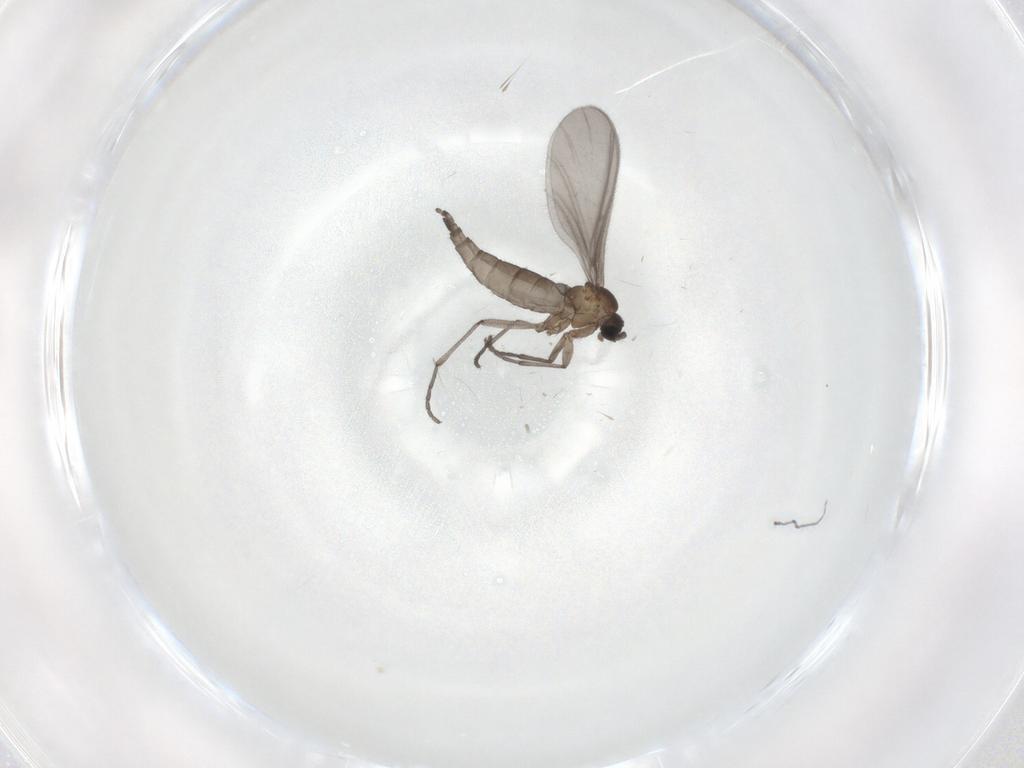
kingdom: Animalia
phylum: Arthropoda
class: Insecta
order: Diptera
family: Sciaridae
